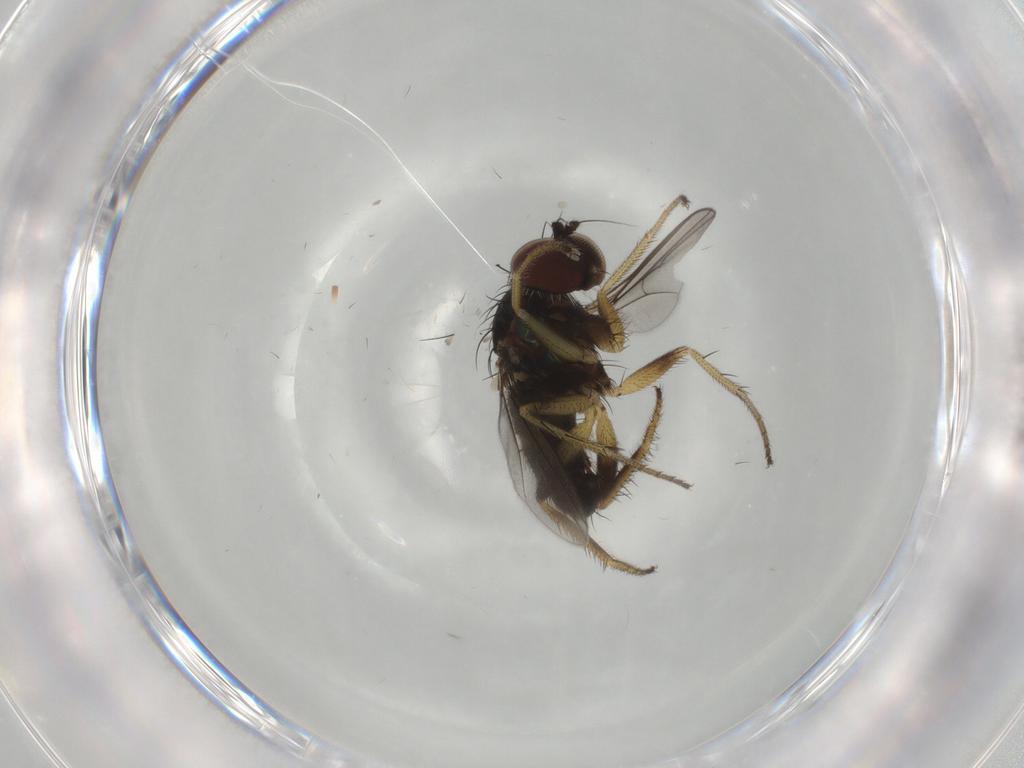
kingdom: Animalia
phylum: Arthropoda
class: Insecta
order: Diptera
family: Dolichopodidae
